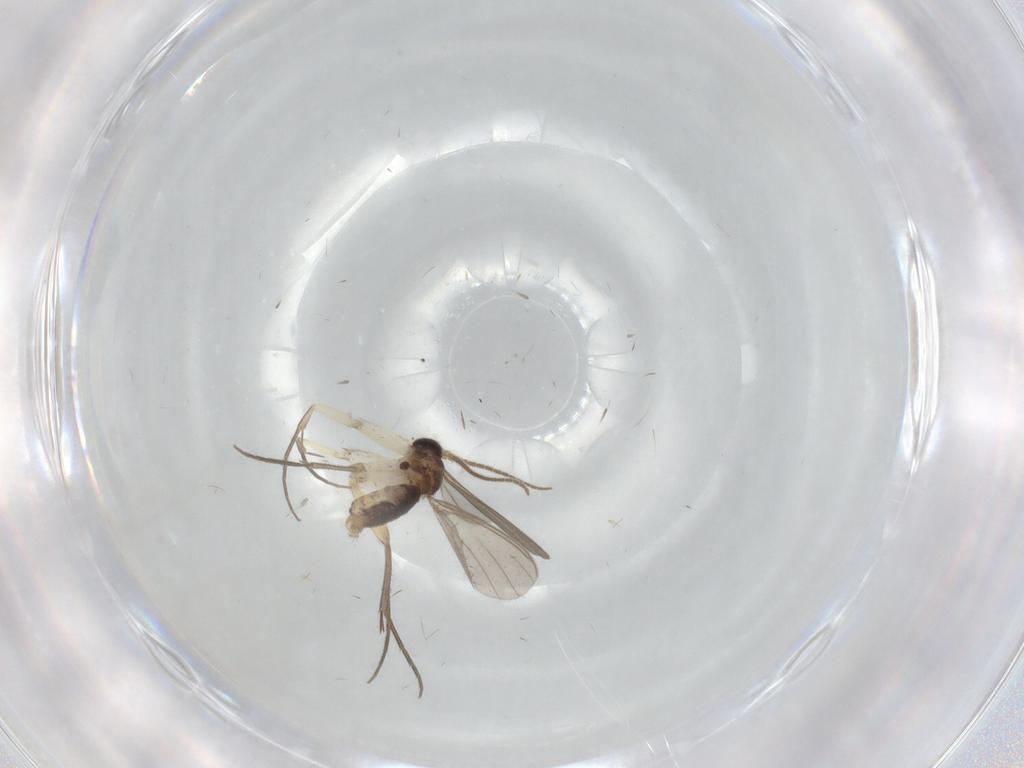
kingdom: Animalia
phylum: Arthropoda
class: Insecta
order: Diptera
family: Mycetophilidae
